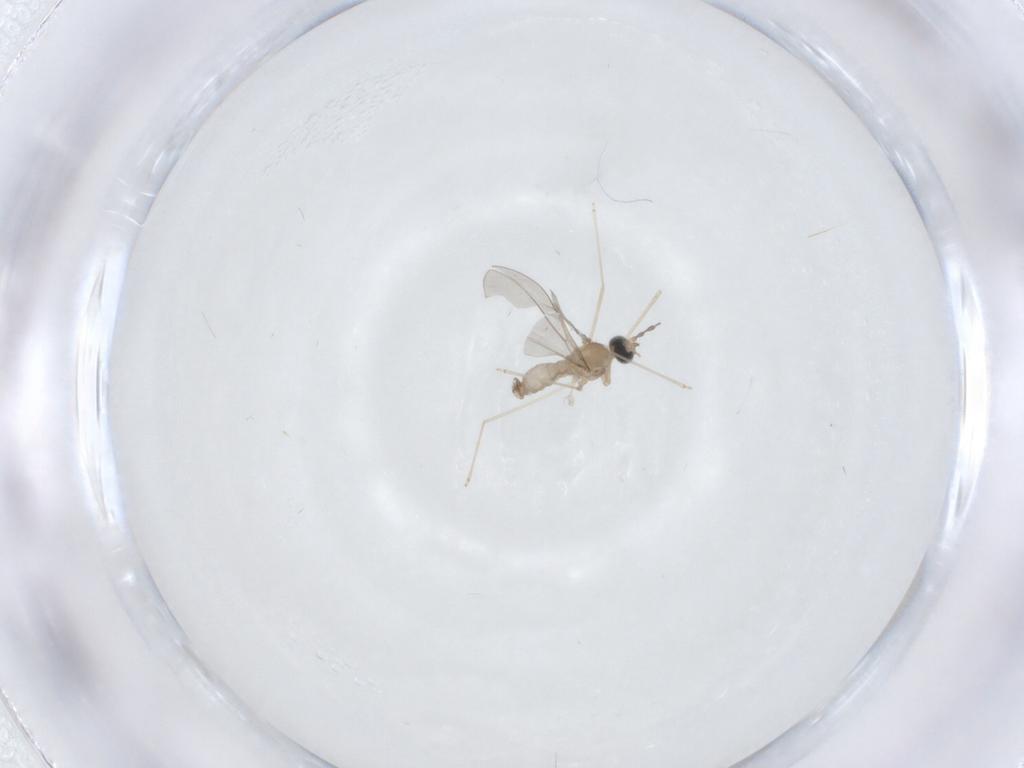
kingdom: Animalia
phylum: Arthropoda
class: Insecta
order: Diptera
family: Cecidomyiidae
